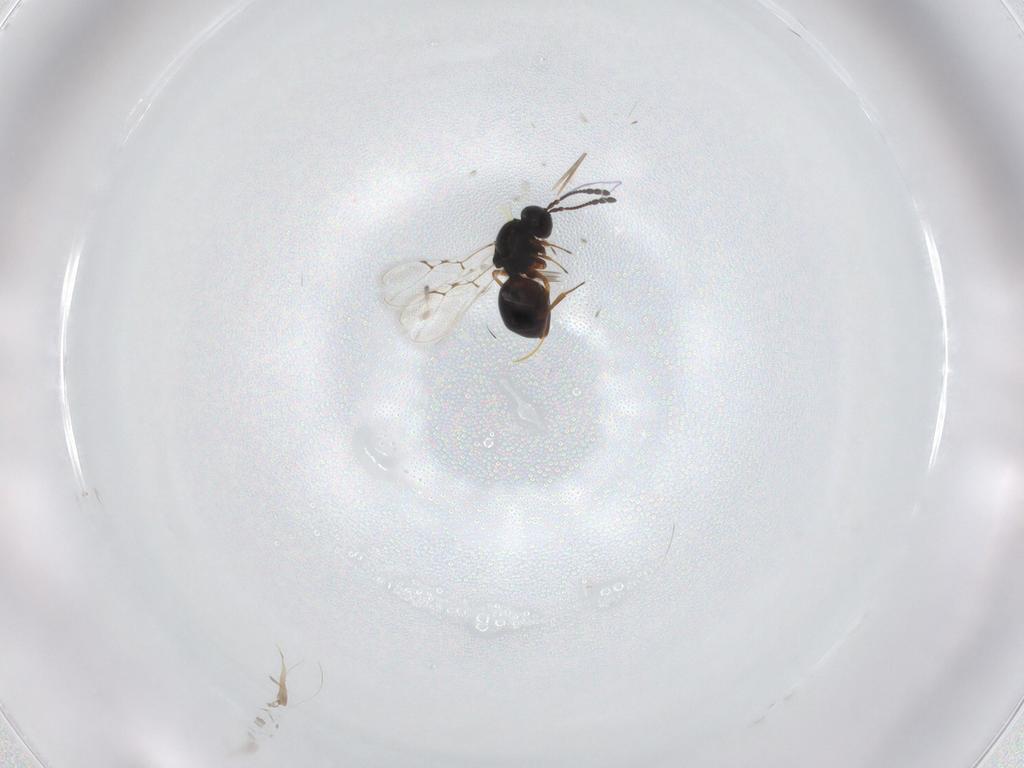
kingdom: Animalia
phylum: Arthropoda
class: Insecta
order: Hymenoptera
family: Figitidae
